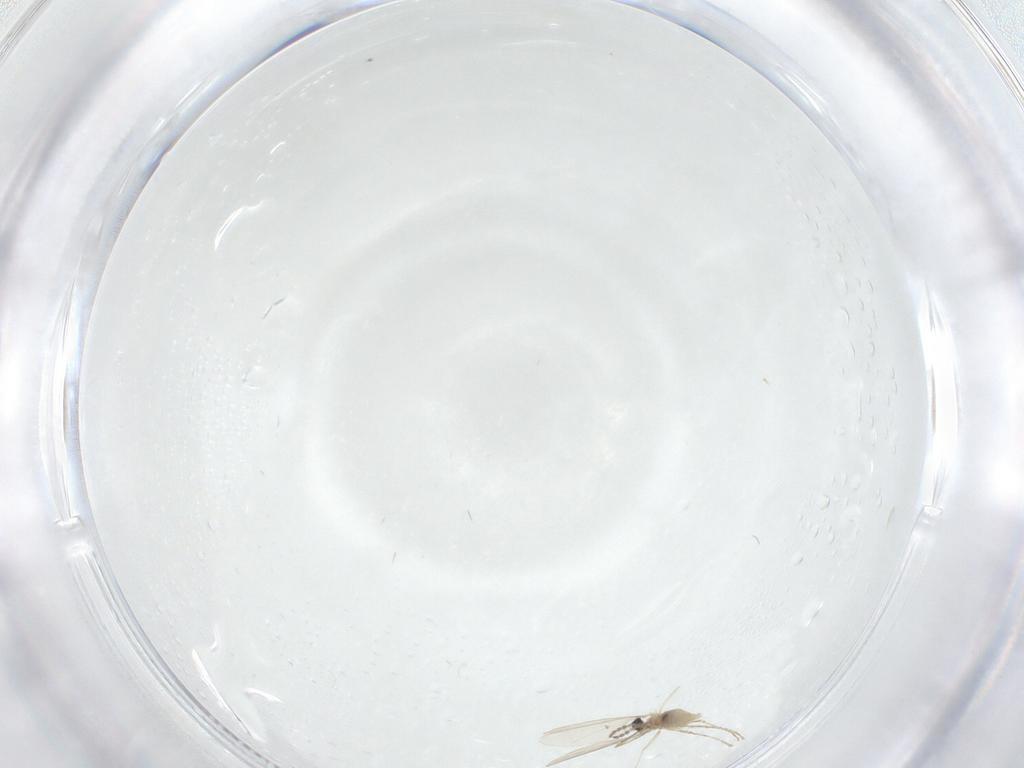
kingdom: Animalia
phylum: Arthropoda
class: Insecta
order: Diptera
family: Cecidomyiidae
